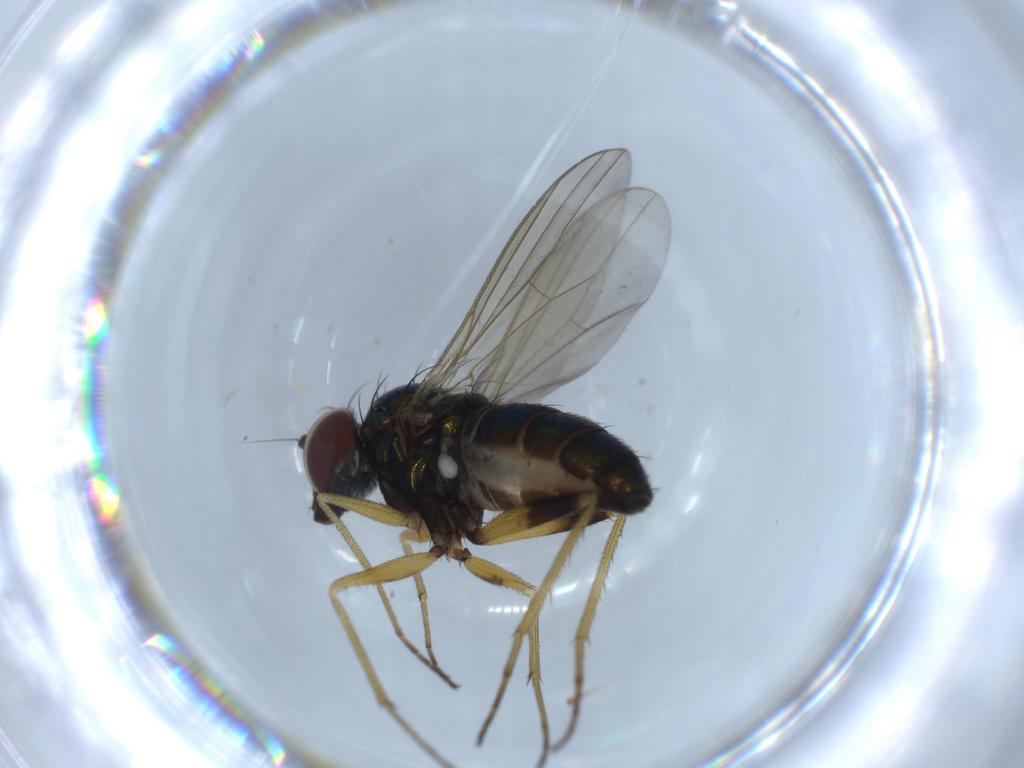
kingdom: Animalia
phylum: Arthropoda
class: Insecta
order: Diptera
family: Dolichopodidae
